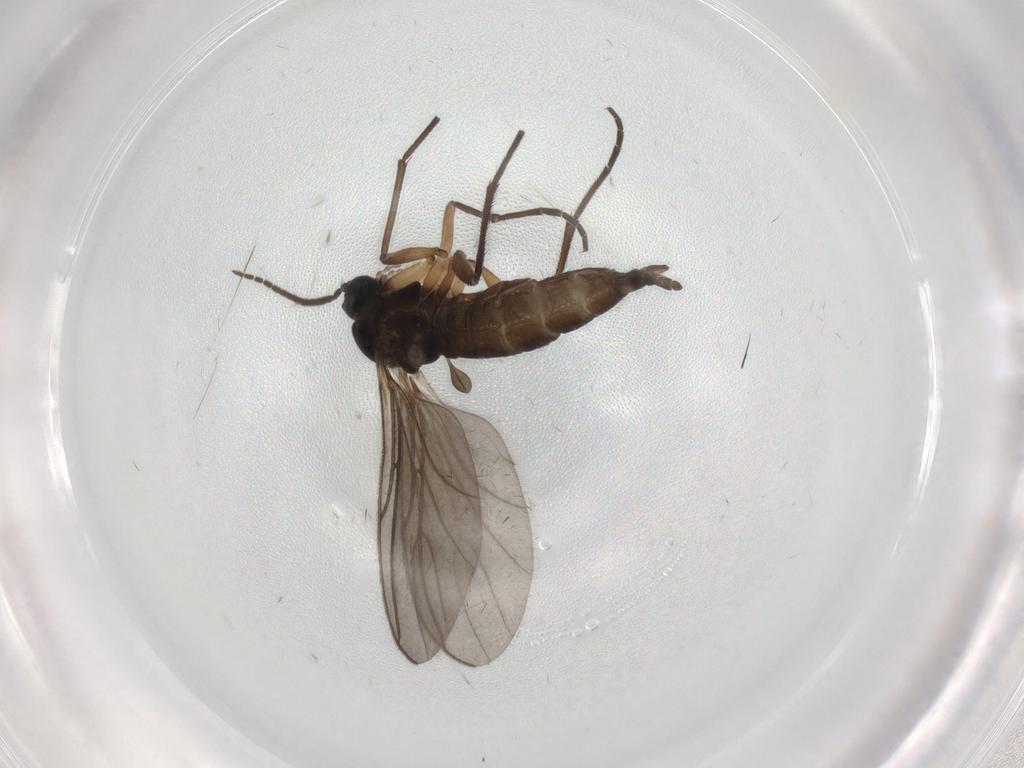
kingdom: Animalia
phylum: Arthropoda
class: Insecta
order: Diptera
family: Sciaridae
